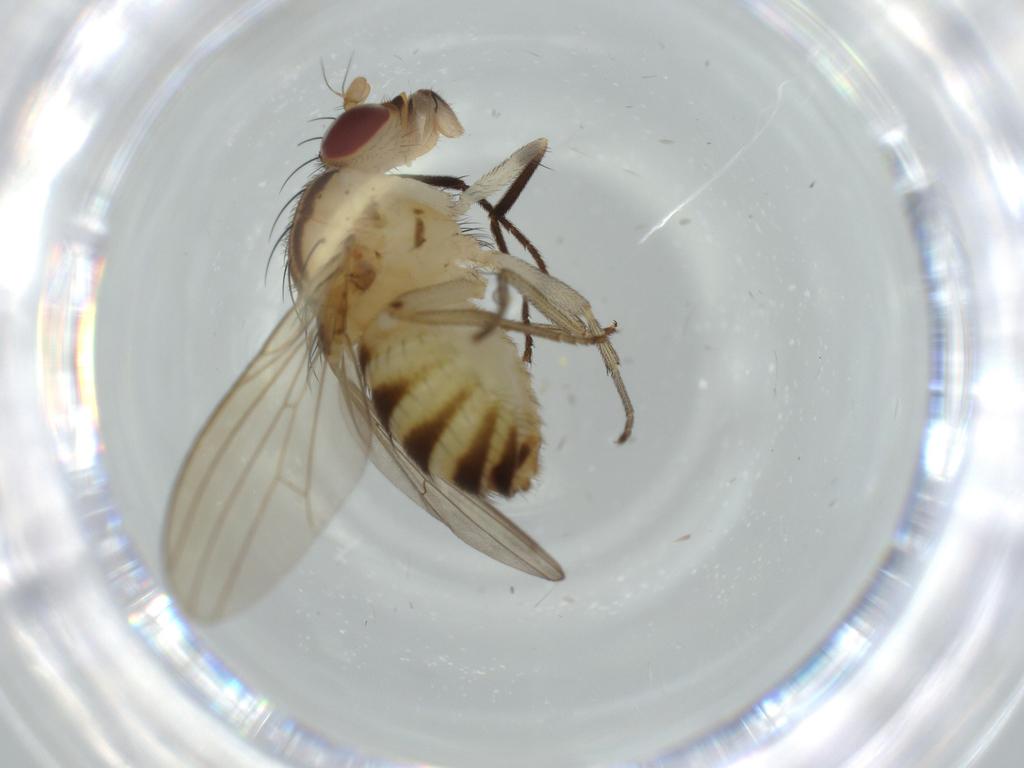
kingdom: Animalia
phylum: Arthropoda
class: Insecta
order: Diptera
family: Lauxaniidae
